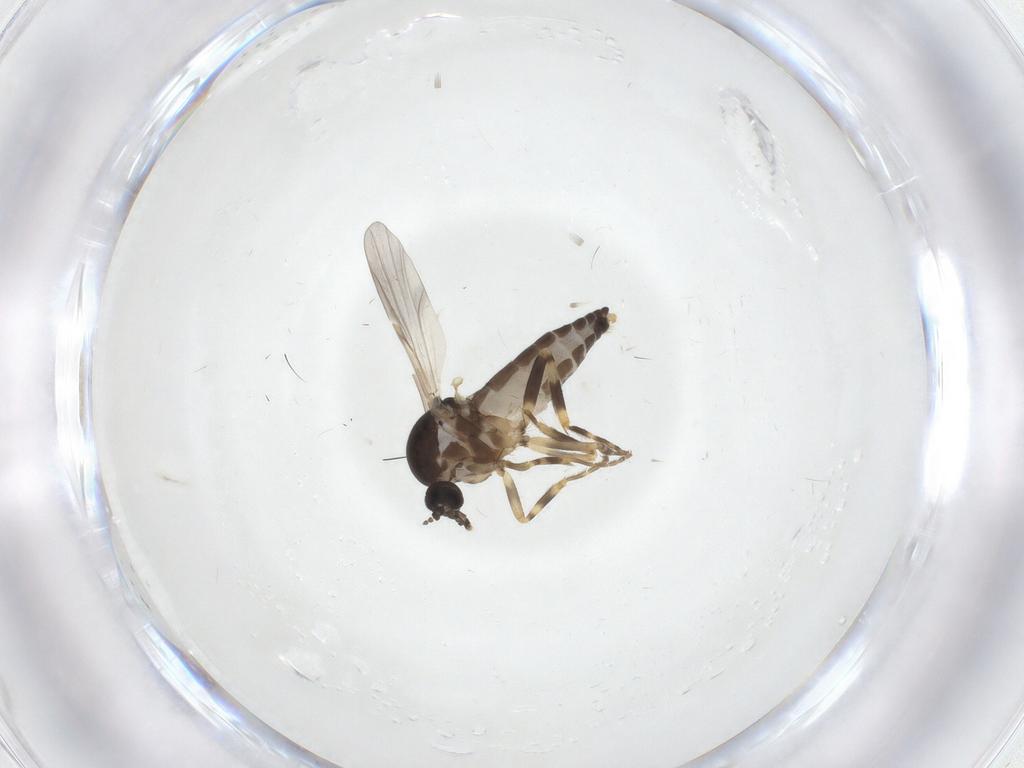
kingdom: Animalia
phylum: Arthropoda
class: Insecta
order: Diptera
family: Ceratopogonidae
